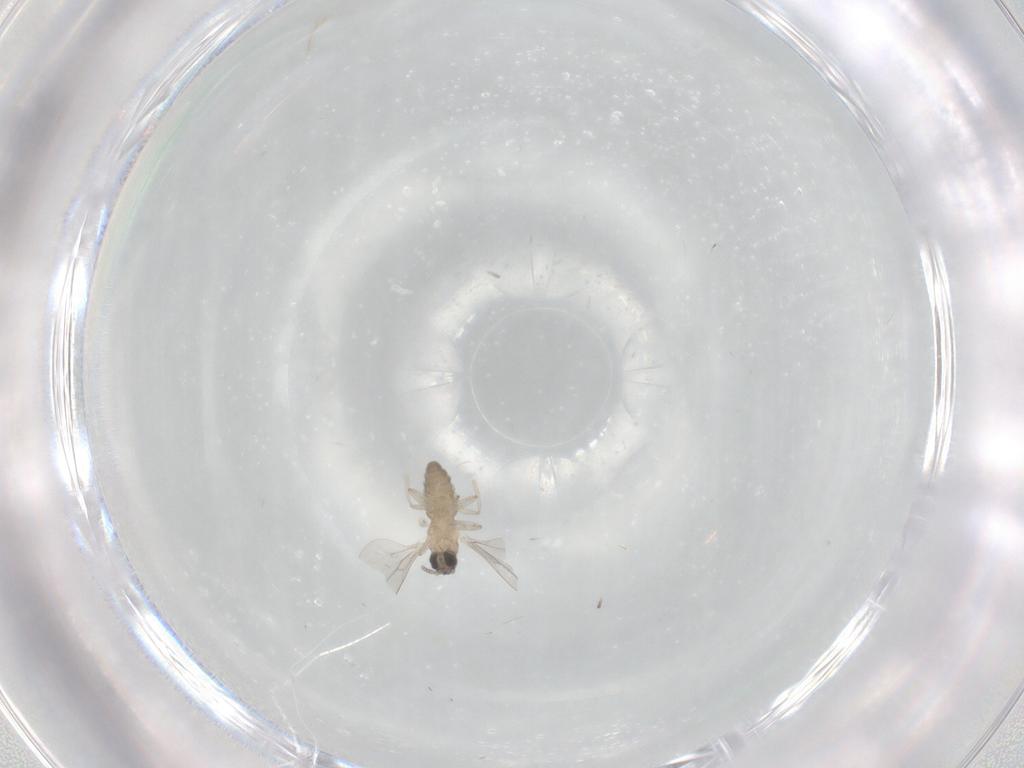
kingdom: Animalia
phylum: Arthropoda
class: Insecta
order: Diptera
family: Cecidomyiidae
